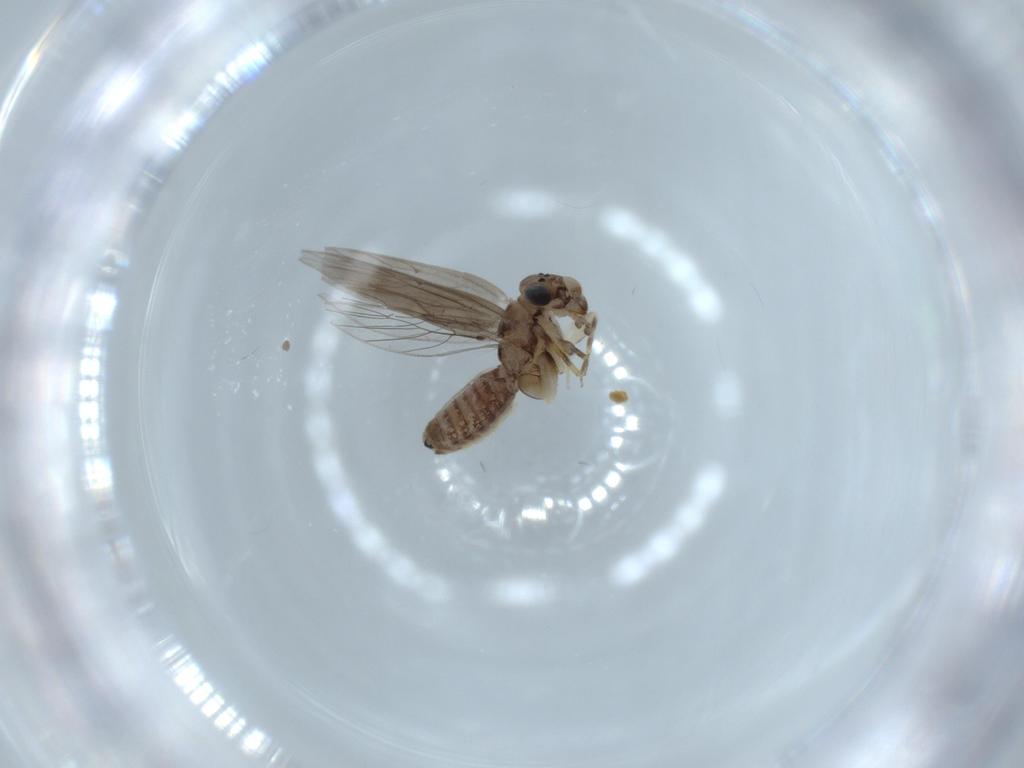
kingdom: Animalia
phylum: Arthropoda
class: Insecta
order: Psocodea
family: Lepidopsocidae
